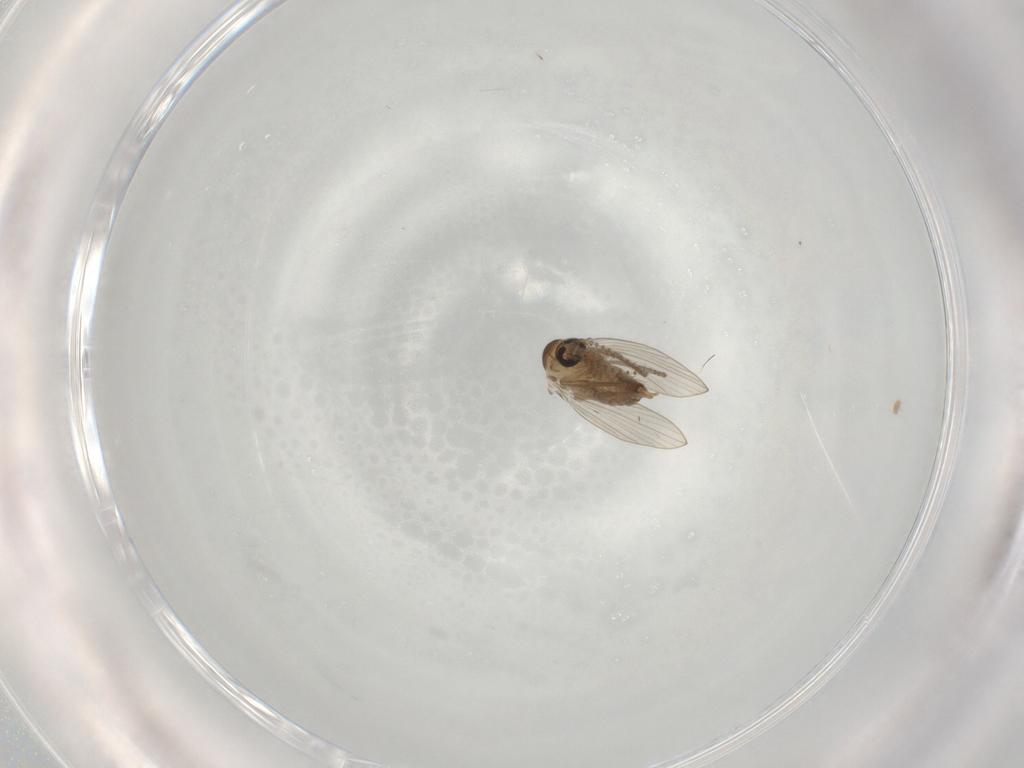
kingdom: Animalia
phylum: Arthropoda
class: Insecta
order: Diptera
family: Psychodidae
